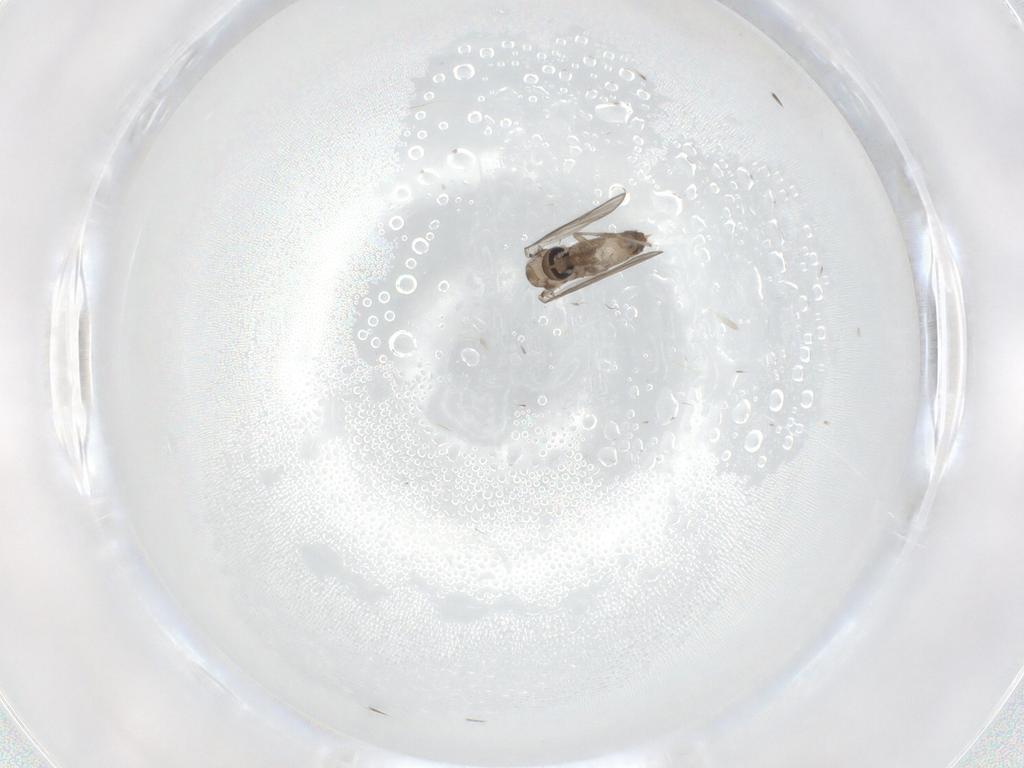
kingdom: Animalia
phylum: Arthropoda
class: Insecta
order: Diptera
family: Psychodidae
